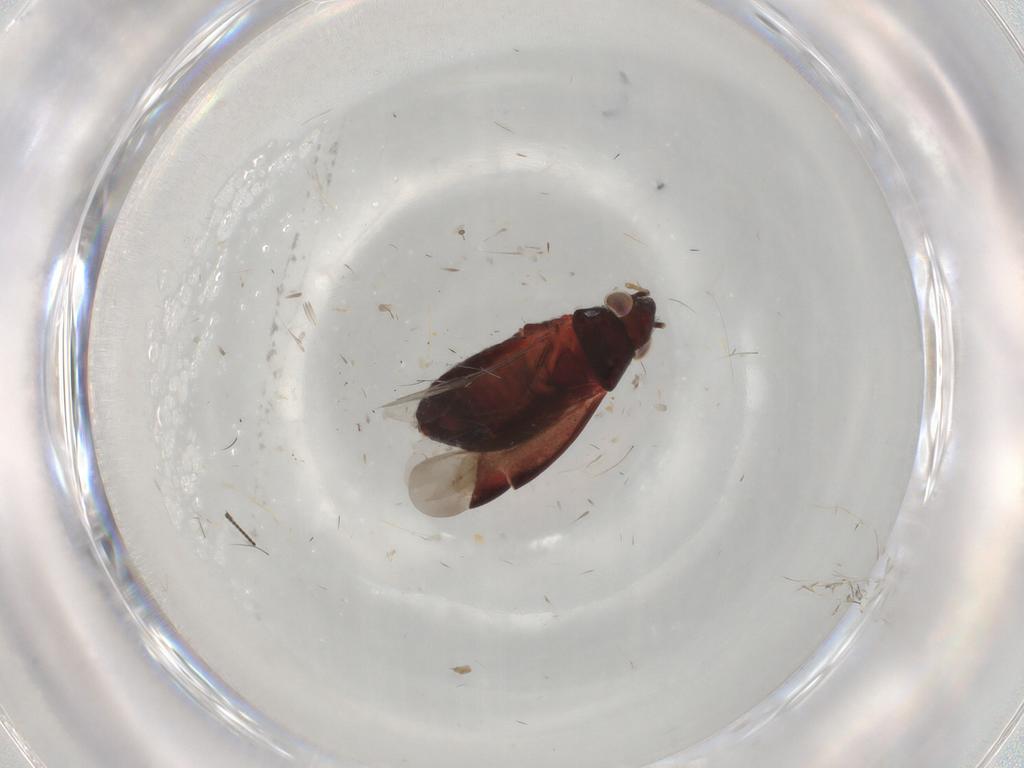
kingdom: Animalia
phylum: Arthropoda
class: Insecta
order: Hemiptera
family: Miridae
